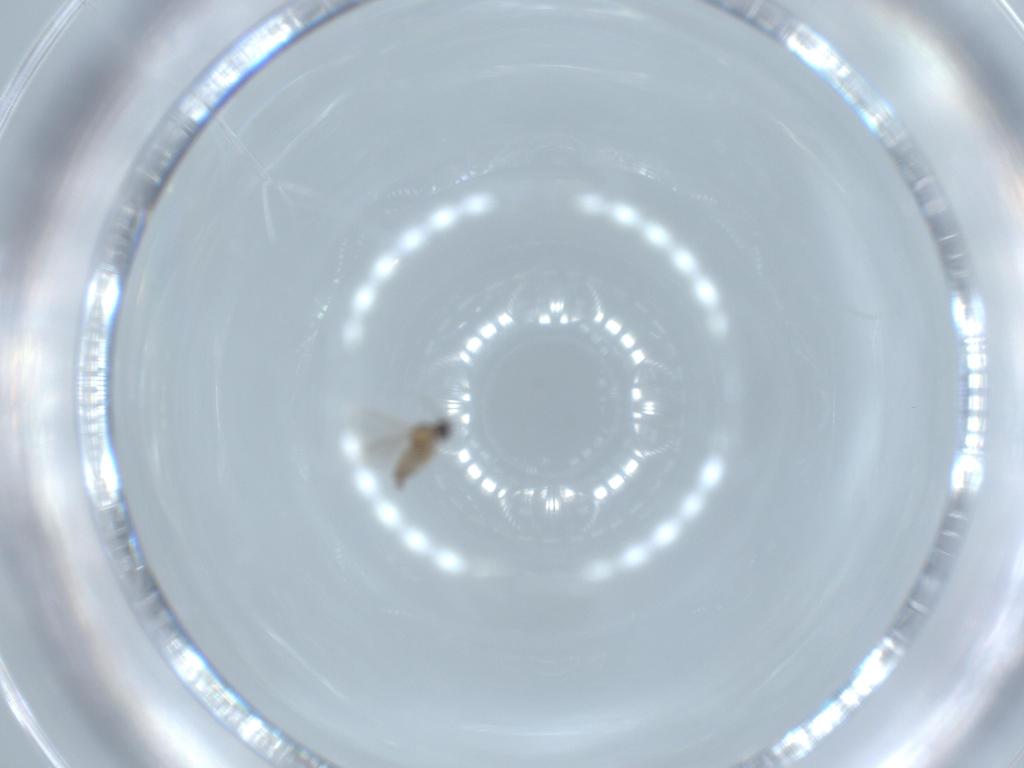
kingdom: Animalia
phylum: Arthropoda
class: Insecta
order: Diptera
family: Cecidomyiidae
